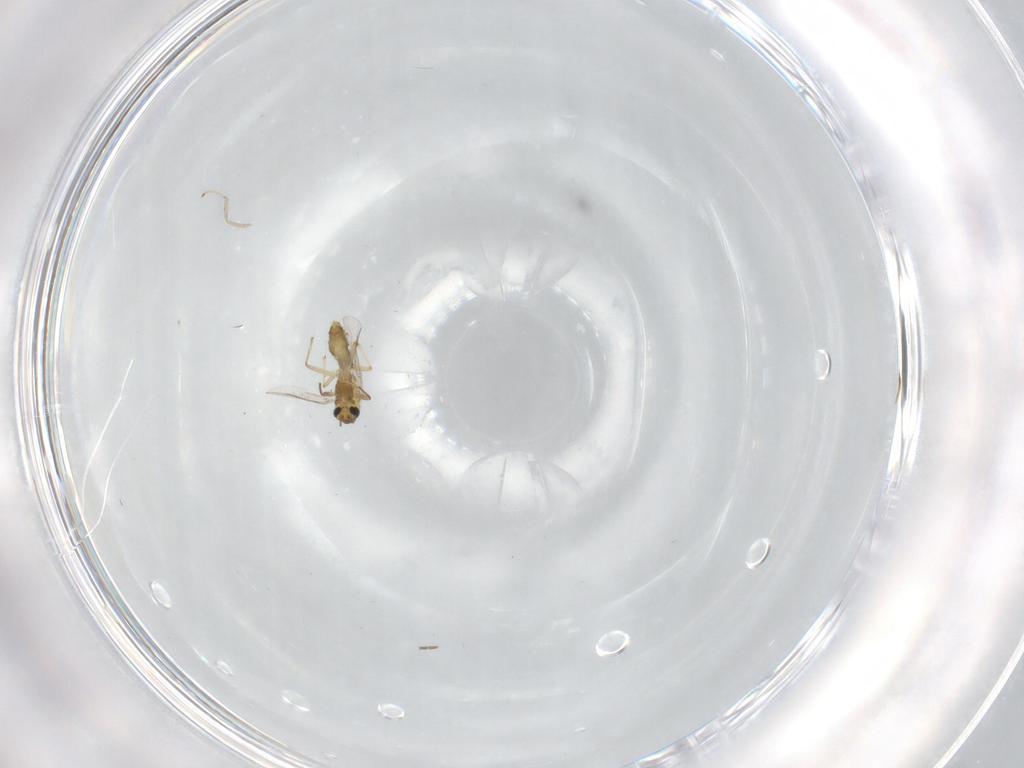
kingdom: Animalia
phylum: Arthropoda
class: Insecta
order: Diptera
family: Chironomidae
